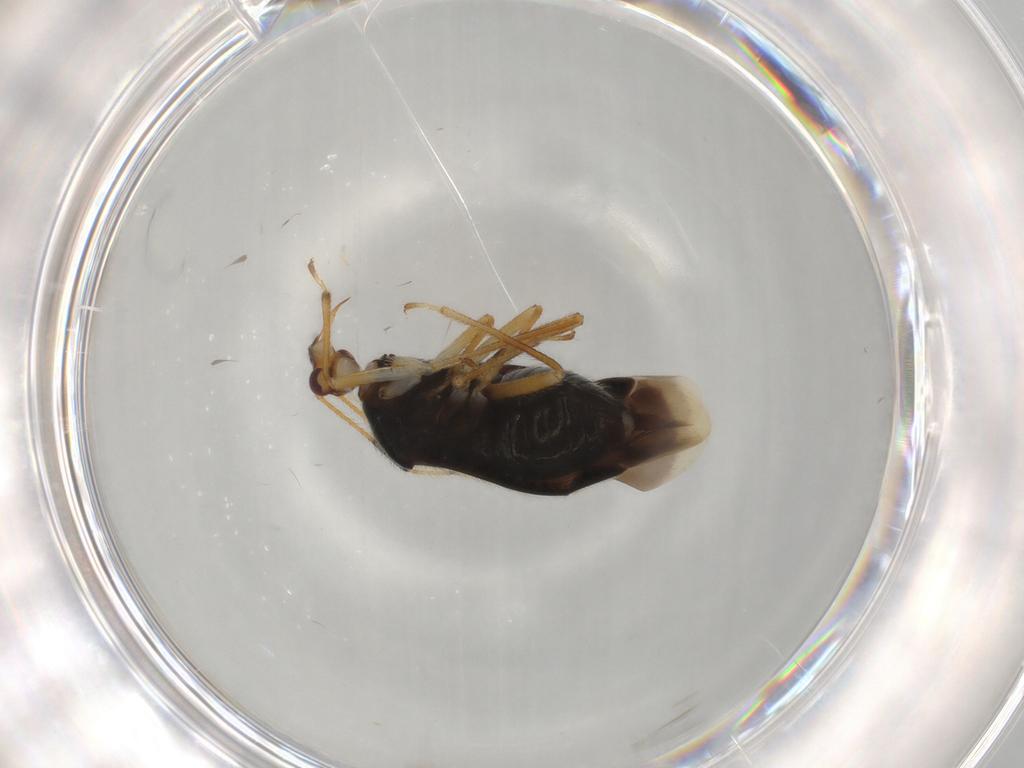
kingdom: Animalia
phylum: Arthropoda
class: Insecta
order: Hemiptera
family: Miridae
